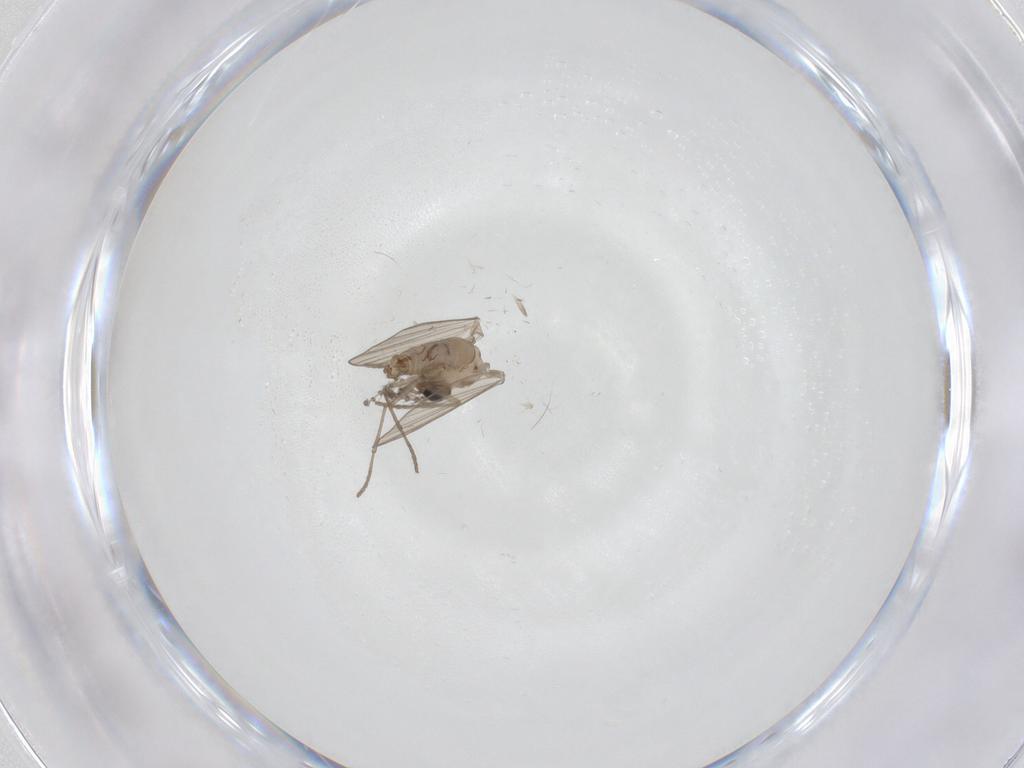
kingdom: Animalia
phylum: Arthropoda
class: Insecta
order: Diptera
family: Psychodidae
